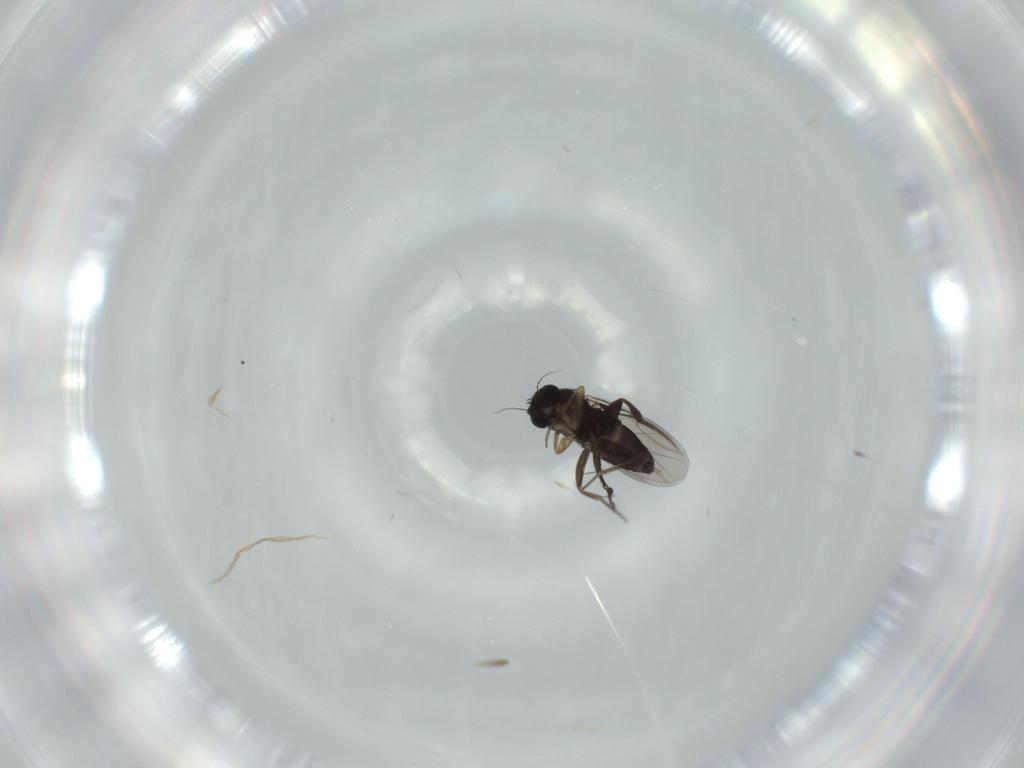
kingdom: Animalia
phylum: Arthropoda
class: Insecta
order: Diptera
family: Phoridae
